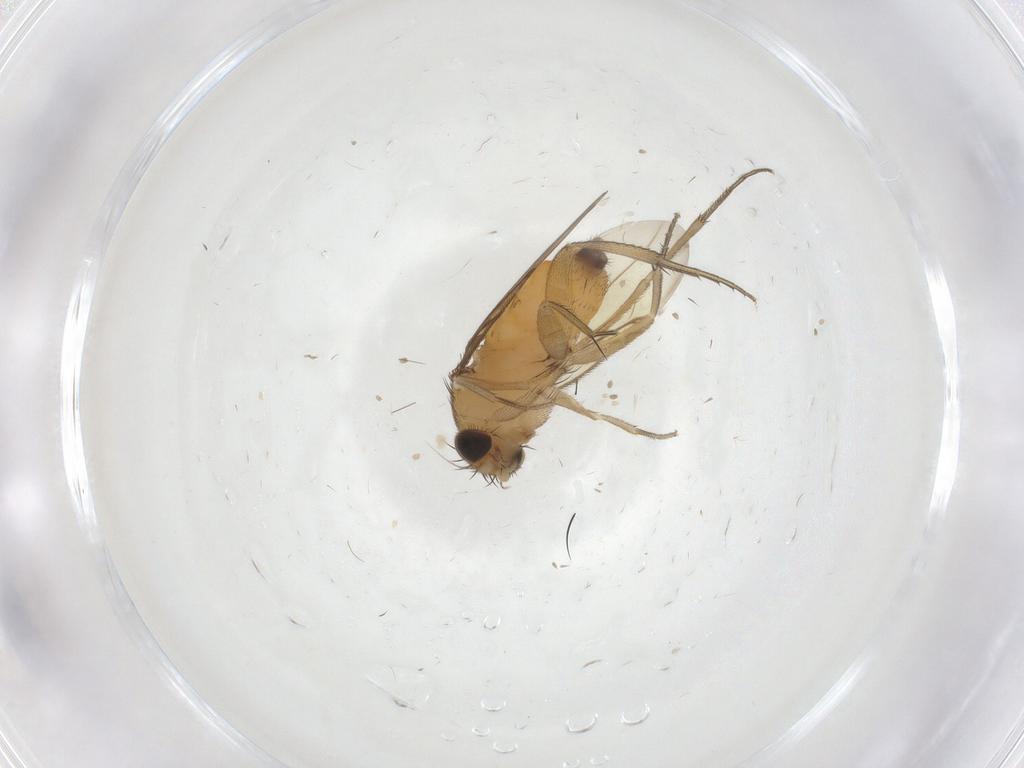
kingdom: Animalia
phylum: Arthropoda
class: Insecta
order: Diptera
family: Psychodidae
